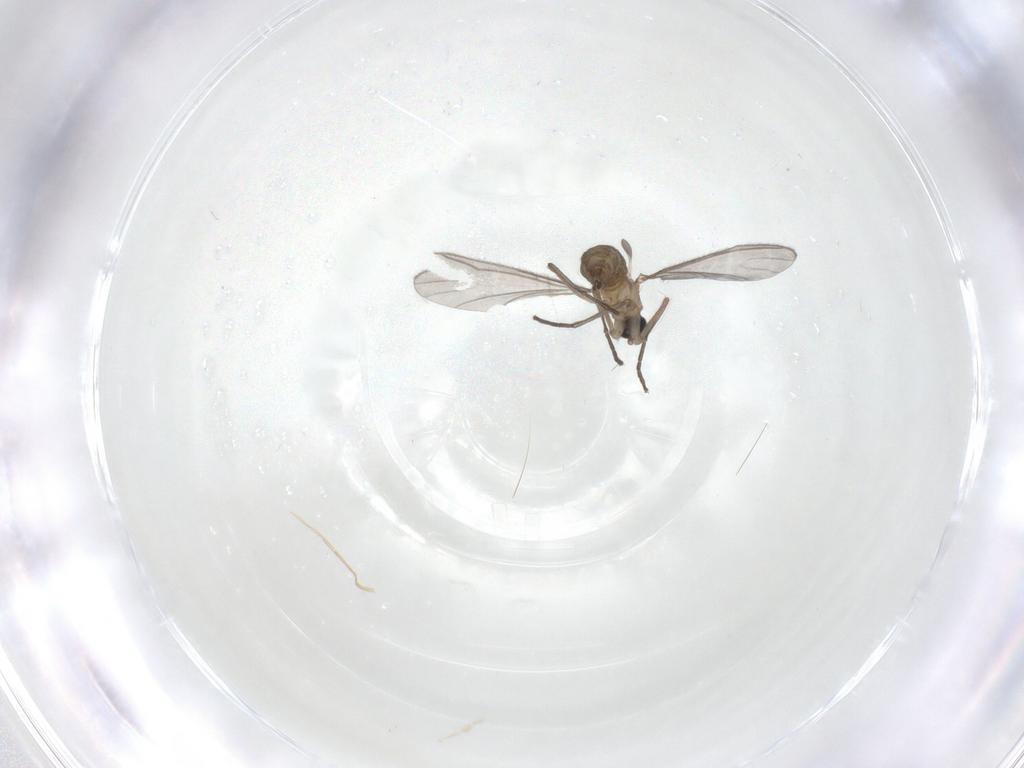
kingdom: Animalia
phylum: Arthropoda
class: Insecta
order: Diptera
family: Sciaridae
